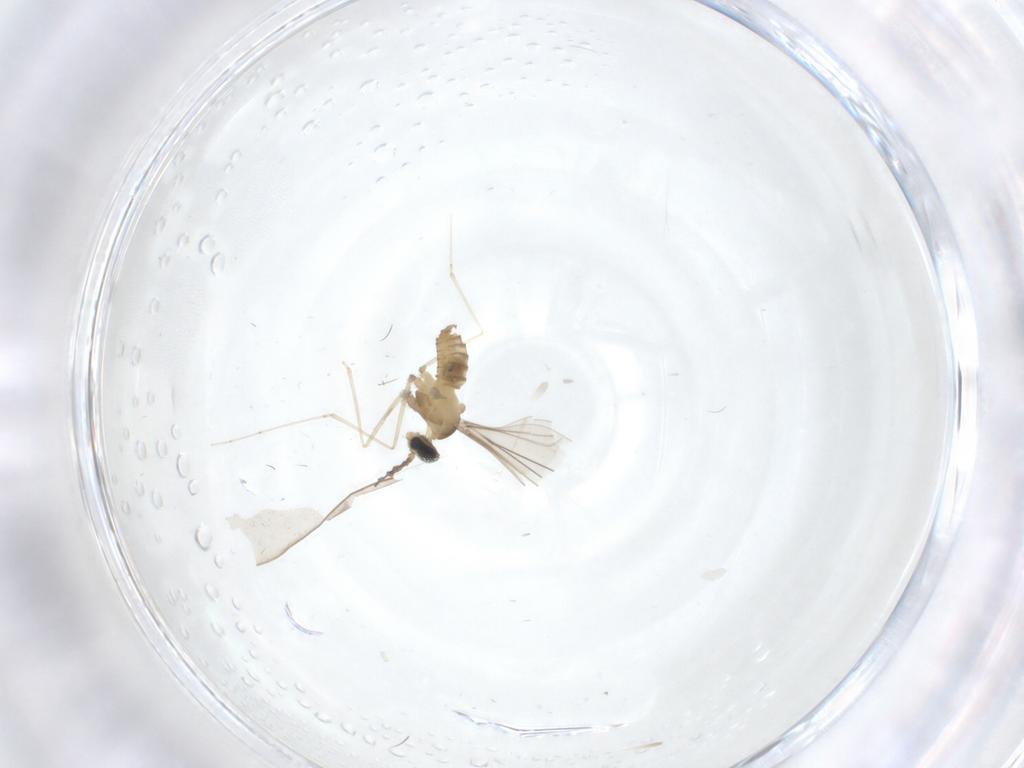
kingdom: Animalia
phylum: Arthropoda
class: Insecta
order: Diptera
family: Cecidomyiidae
